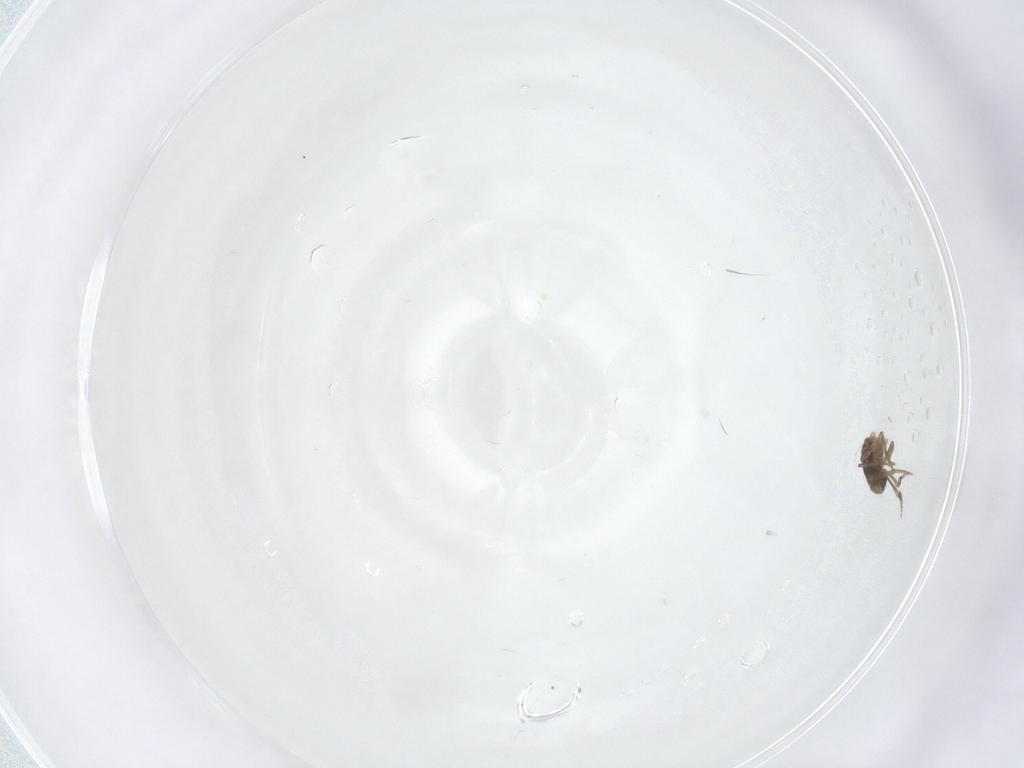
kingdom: Animalia
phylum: Arthropoda
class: Insecta
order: Diptera
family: Phoridae
